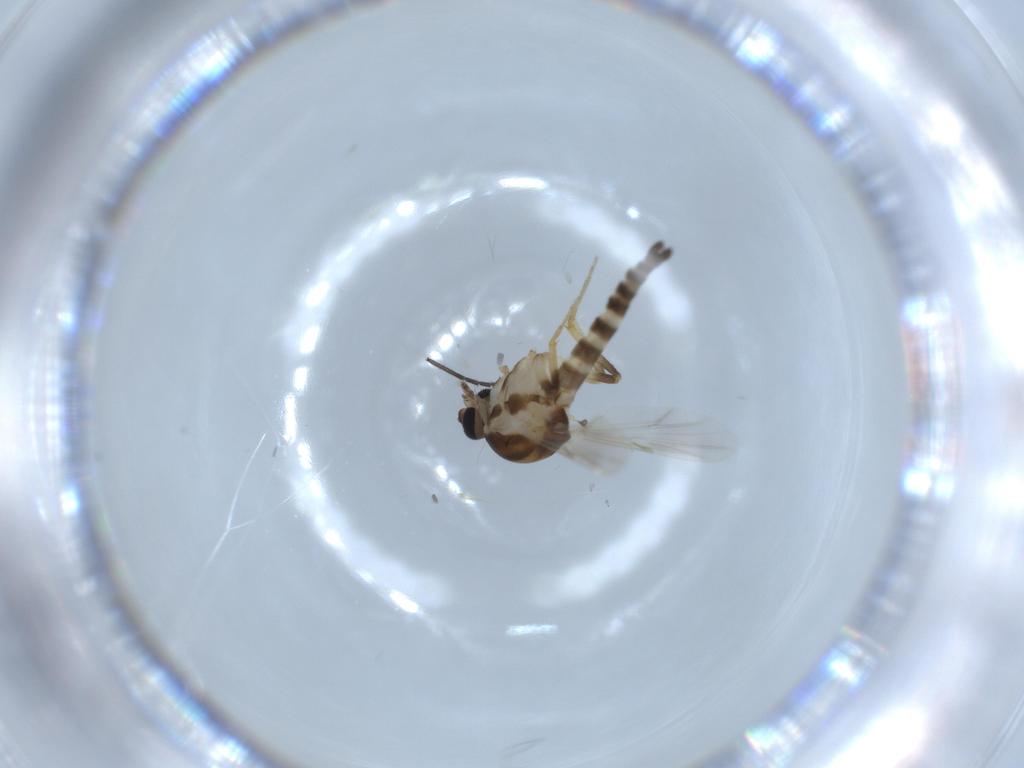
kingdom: Animalia
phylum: Arthropoda
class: Insecta
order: Diptera
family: Ceratopogonidae
